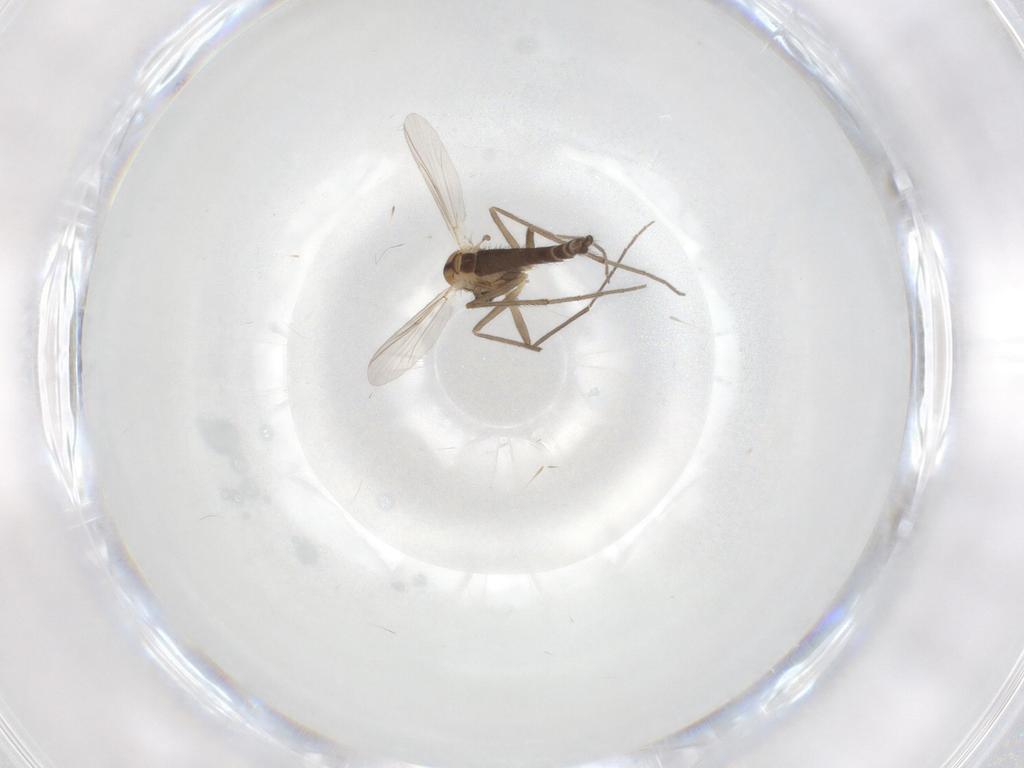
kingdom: Animalia
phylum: Arthropoda
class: Insecta
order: Diptera
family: Chironomidae
